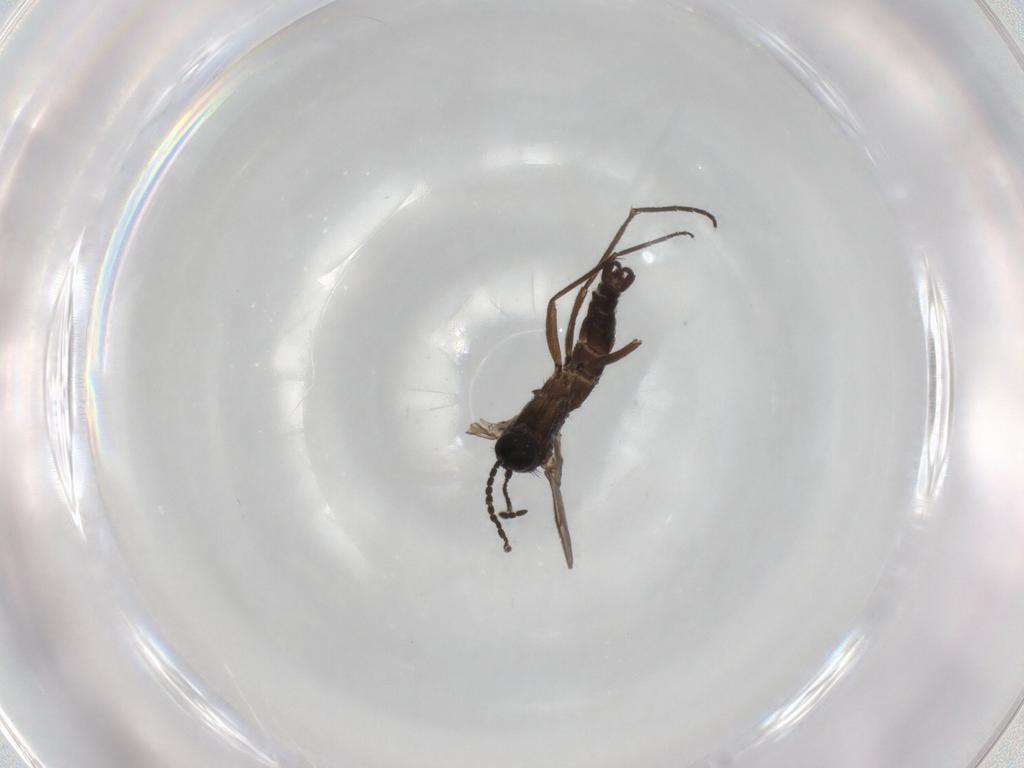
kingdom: Animalia
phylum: Arthropoda
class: Insecta
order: Diptera
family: Sciaridae
